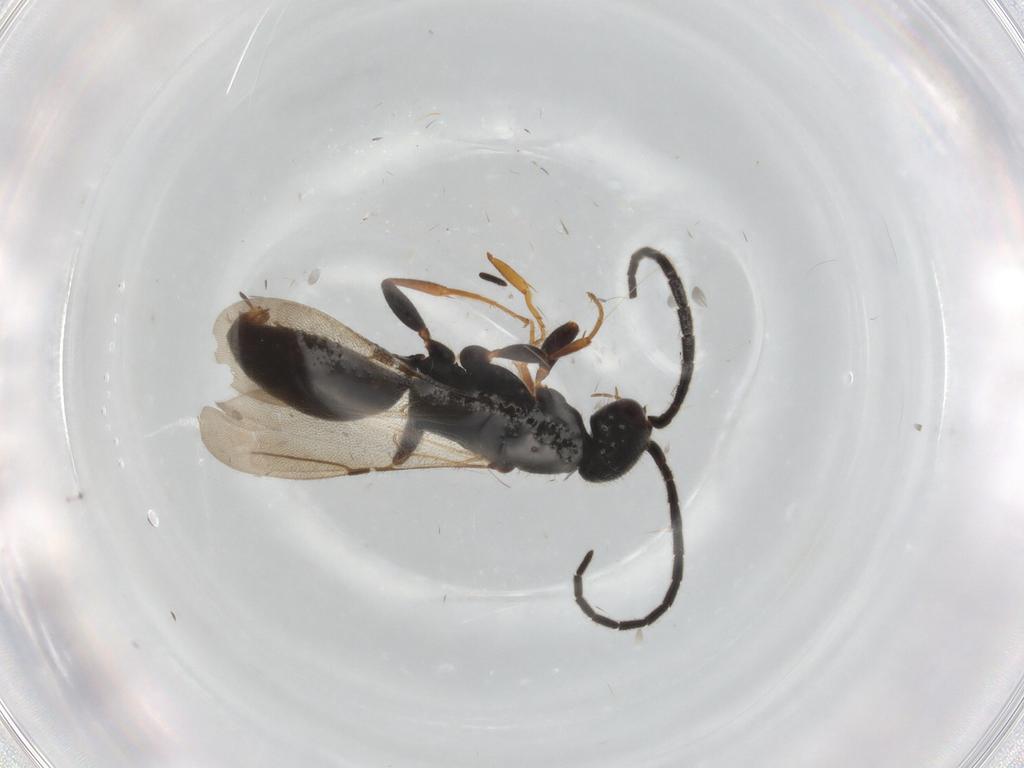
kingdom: Animalia
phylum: Arthropoda
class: Insecta
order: Hymenoptera
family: Bethylidae
